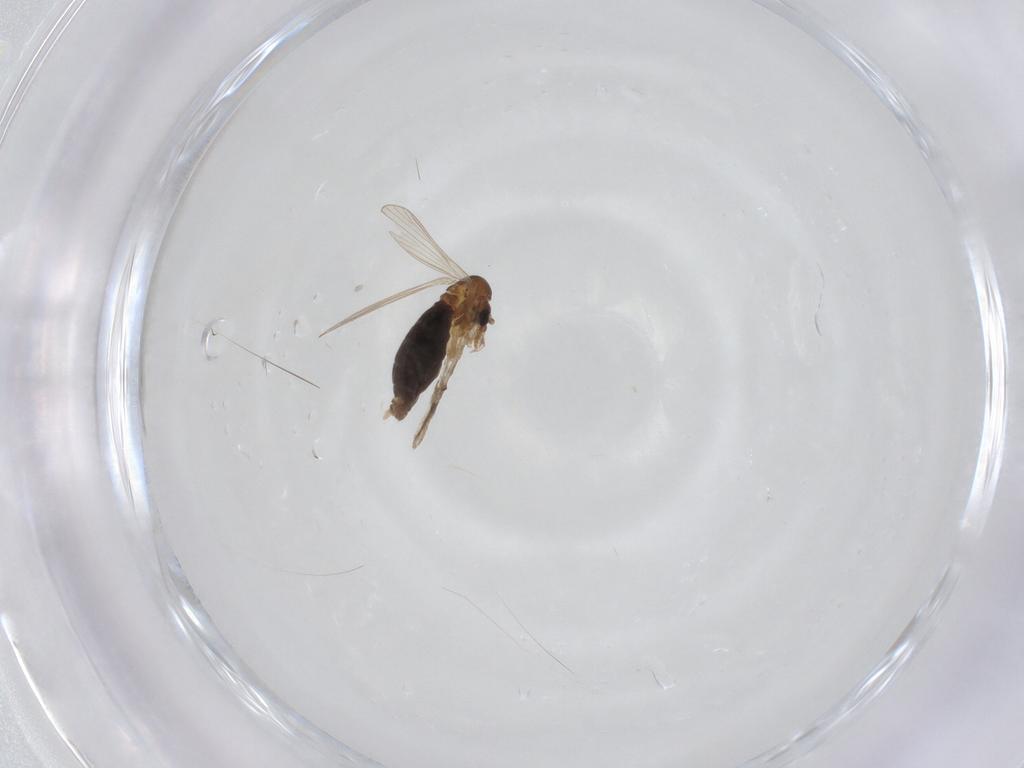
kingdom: Animalia
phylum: Arthropoda
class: Insecta
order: Diptera
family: Psychodidae
